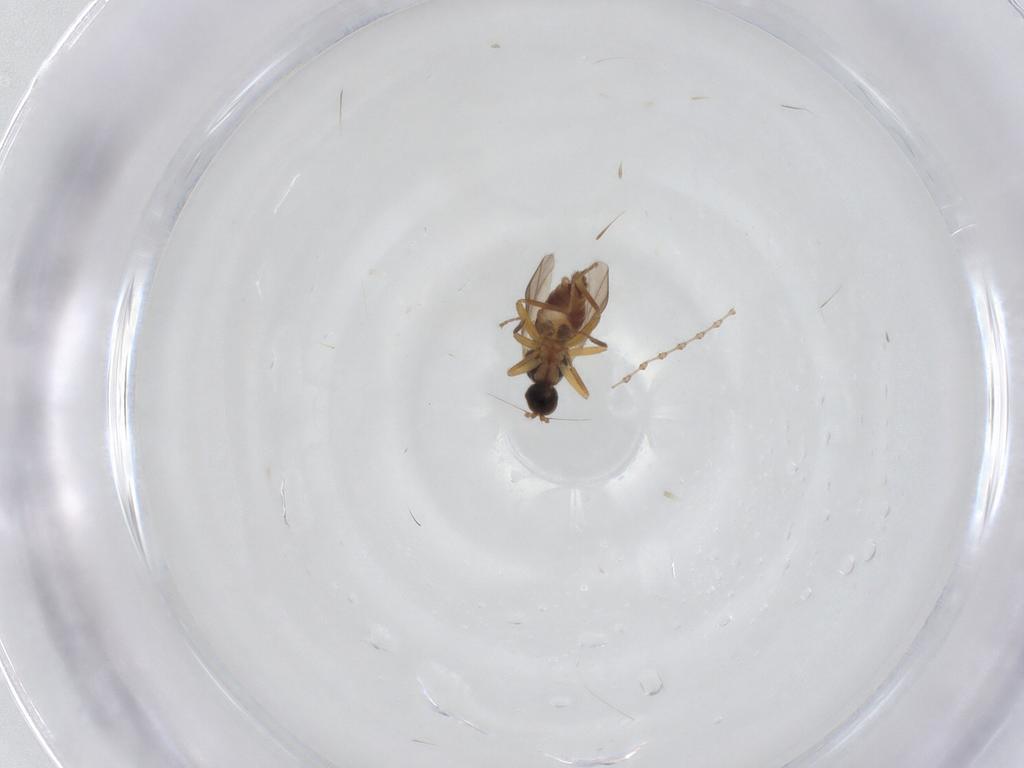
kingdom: Animalia
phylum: Arthropoda
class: Insecta
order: Diptera
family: Hybotidae
